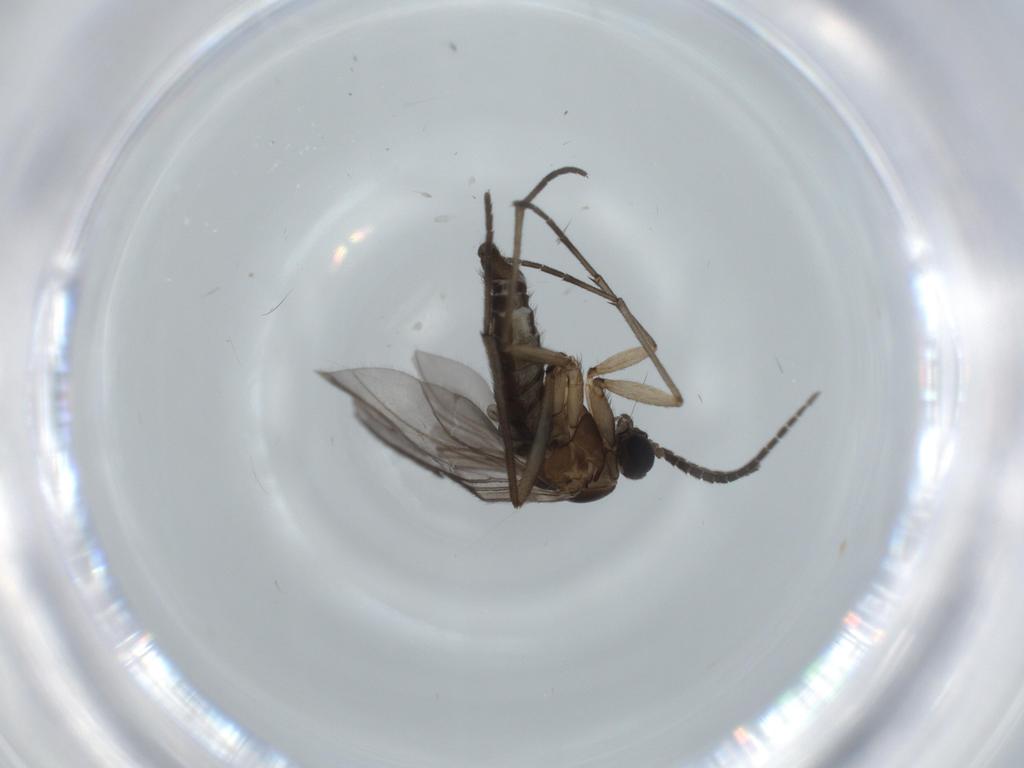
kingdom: Animalia
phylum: Arthropoda
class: Insecta
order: Diptera
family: Sciaridae
